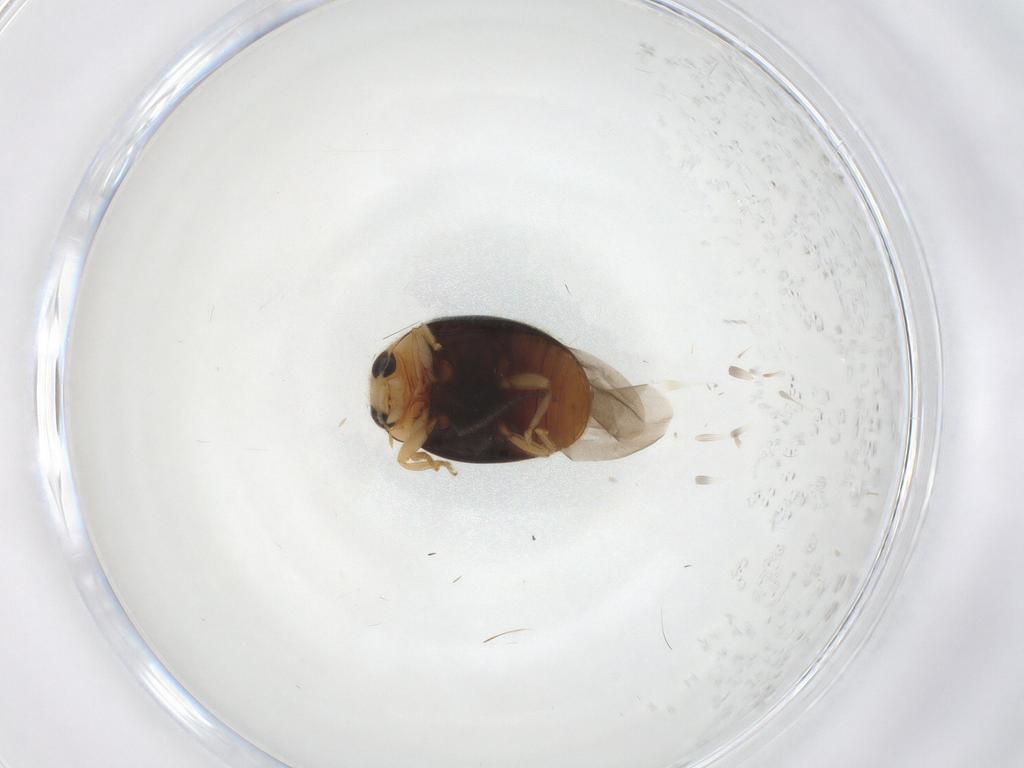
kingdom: Animalia
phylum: Arthropoda
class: Insecta
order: Coleoptera
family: Coccinellidae
